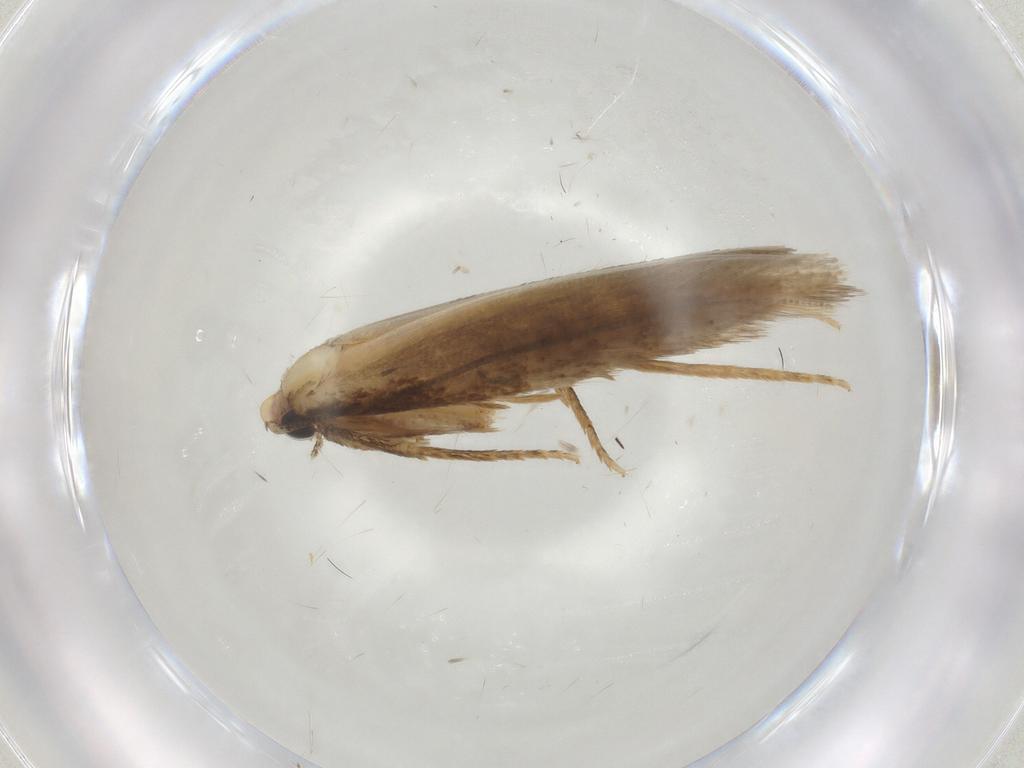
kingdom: Animalia
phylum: Arthropoda
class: Insecta
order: Lepidoptera
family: Tineidae
